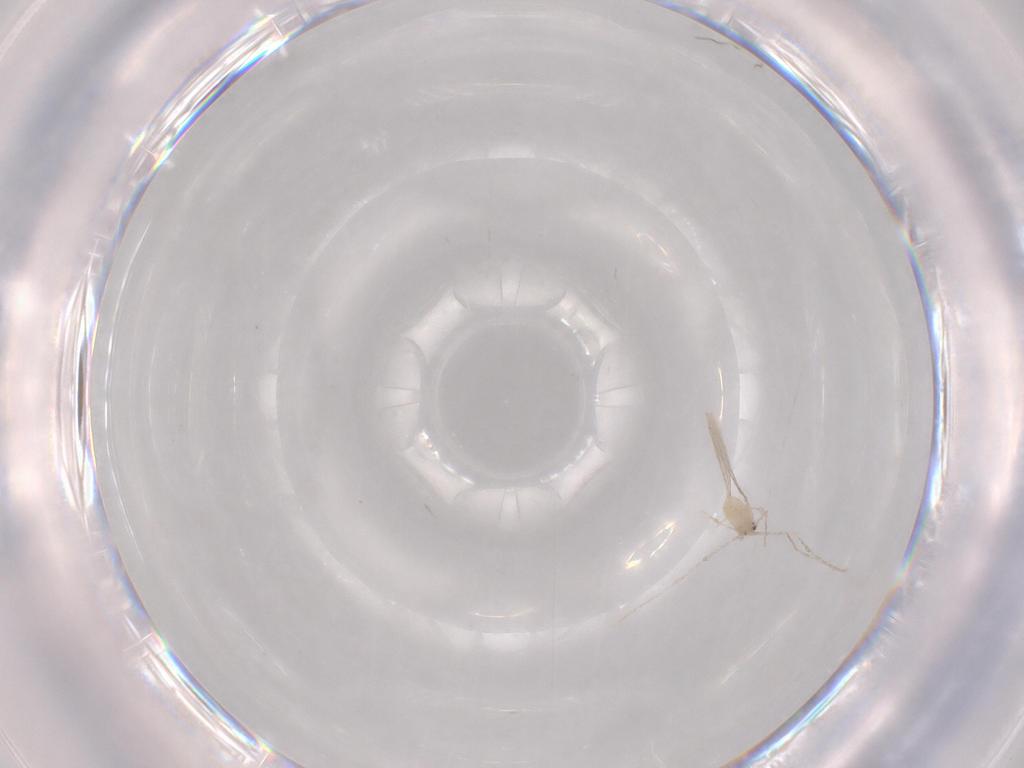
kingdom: Animalia
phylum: Arthropoda
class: Insecta
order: Diptera
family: Cecidomyiidae
